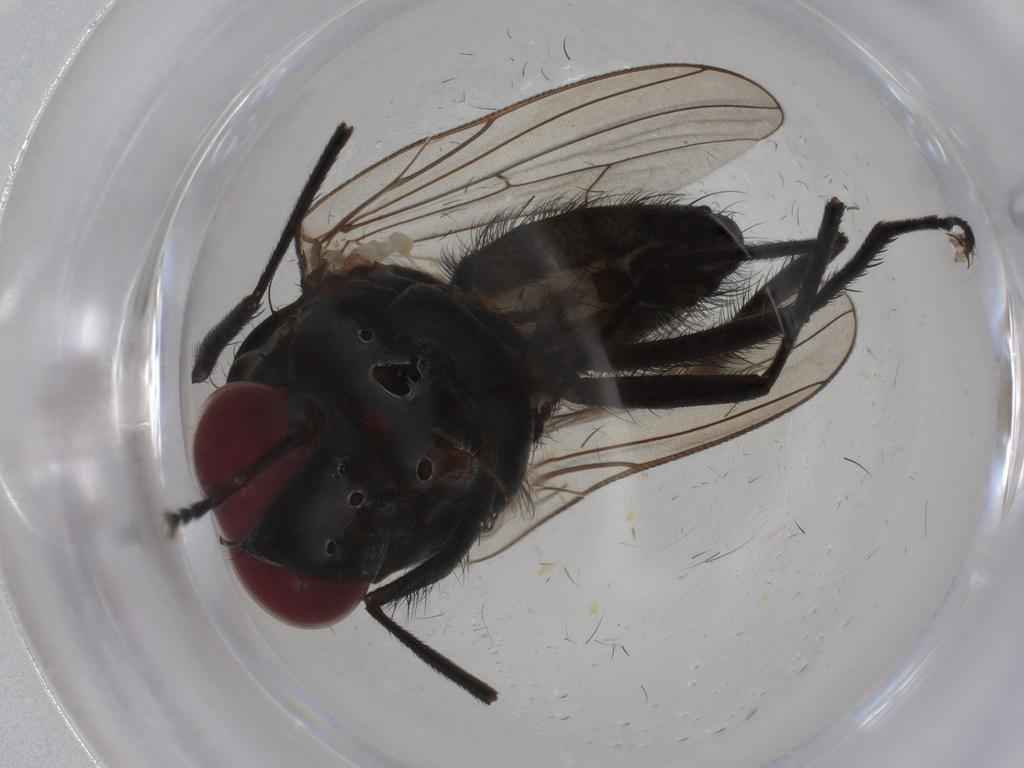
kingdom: Animalia
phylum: Arthropoda
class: Insecta
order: Diptera
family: Anthomyiidae
